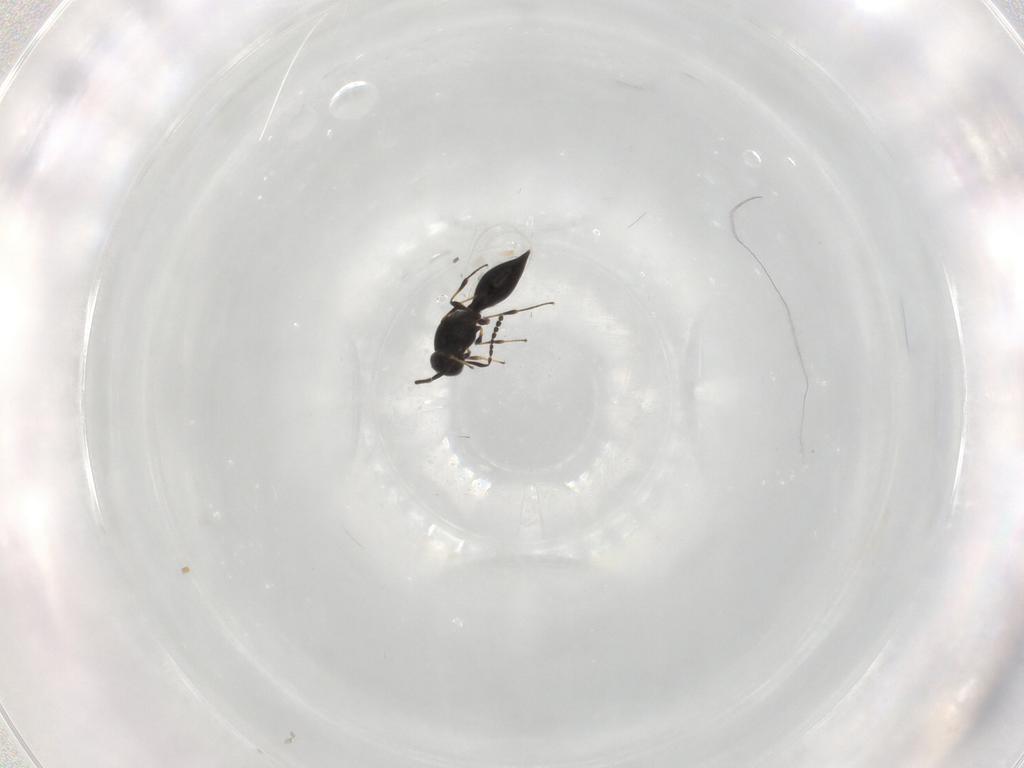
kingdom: Animalia
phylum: Arthropoda
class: Insecta
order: Hymenoptera
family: Platygastridae
